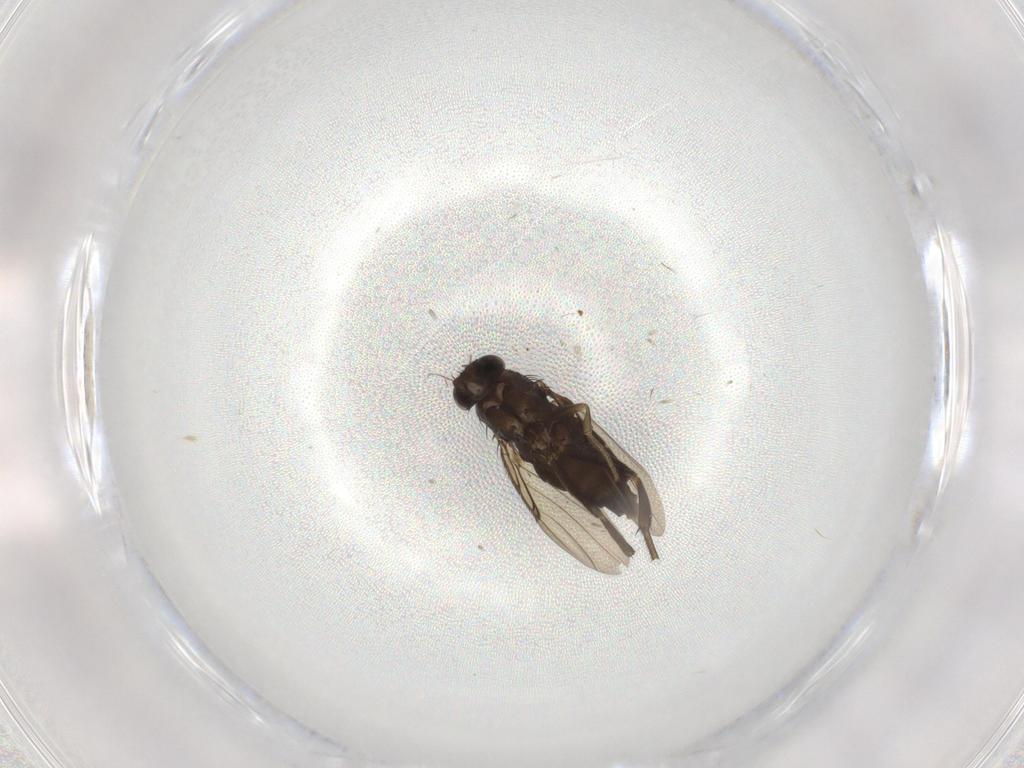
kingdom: Animalia
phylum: Arthropoda
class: Insecta
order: Diptera
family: Phoridae
